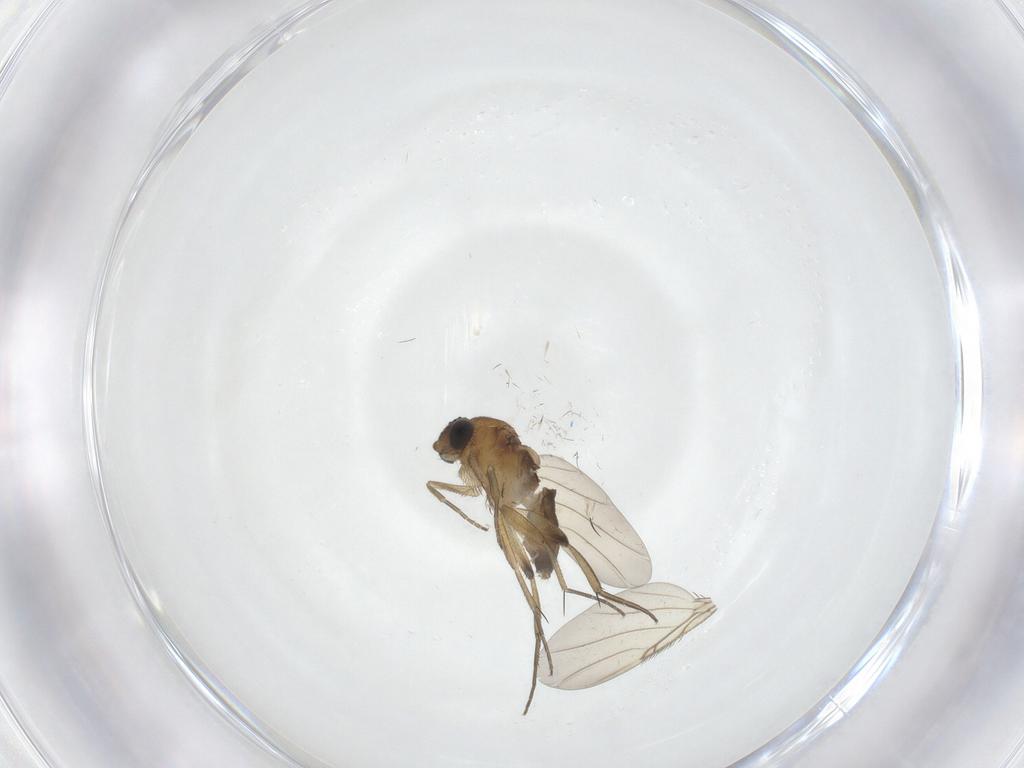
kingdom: Animalia
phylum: Arthropoda
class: Insecta
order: Diptera
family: Phoridae
